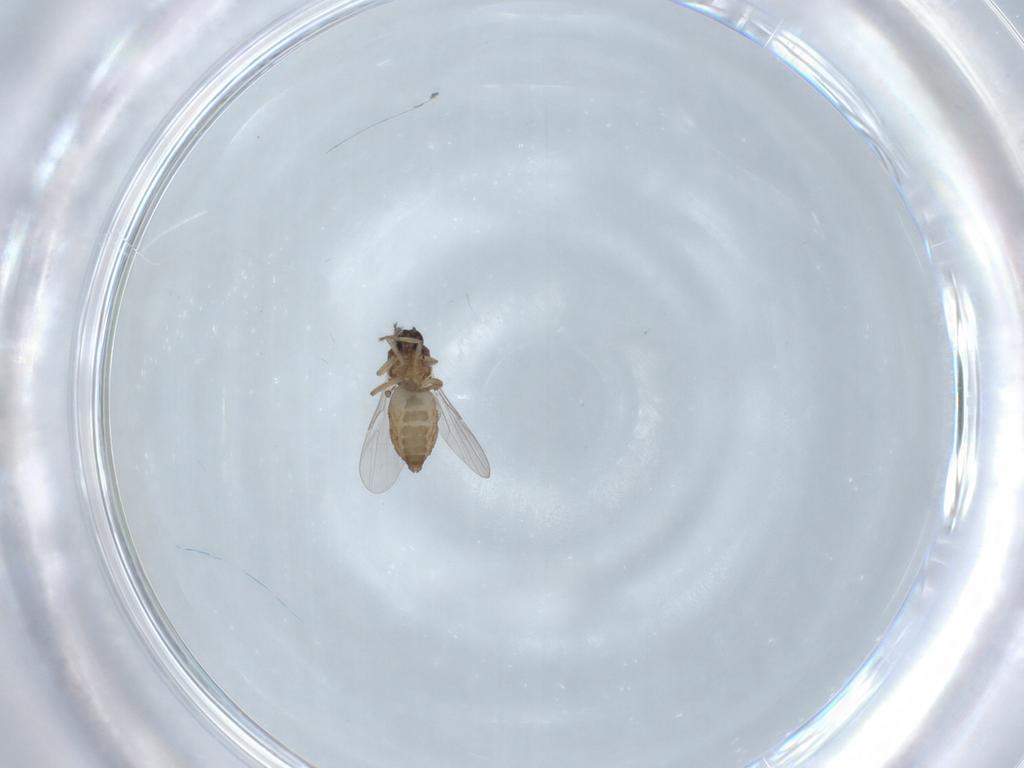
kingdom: Animalia
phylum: Arthropoda
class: Insecta
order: Diptera
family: Ceratopogonidae
